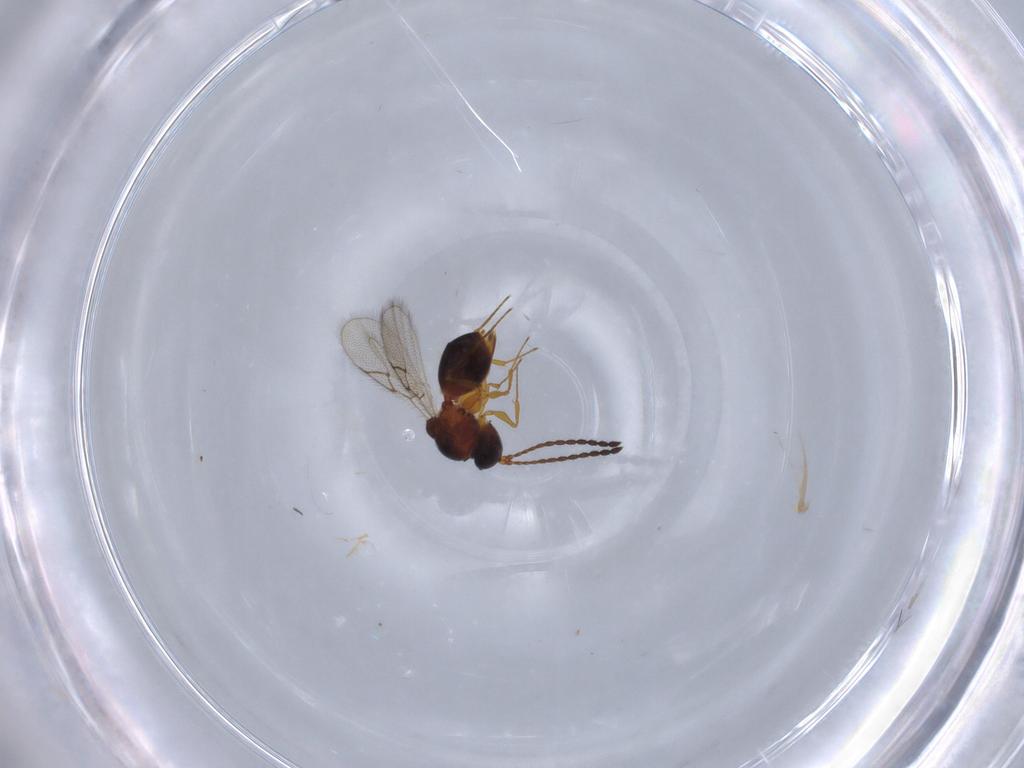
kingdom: Animalia
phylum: Arthropoda
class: Insecta
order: Hymenoptera
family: Figitidae
